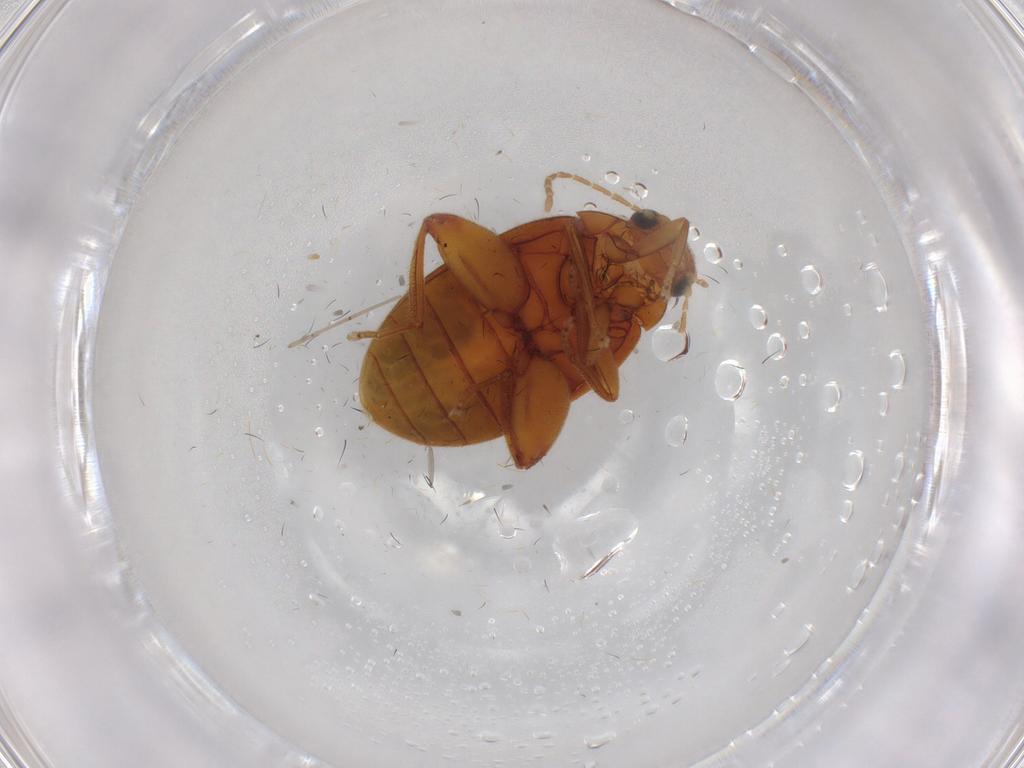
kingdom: Animalia
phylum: Arthropoda
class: Insecta
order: Coleoptera
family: Scirtidae
